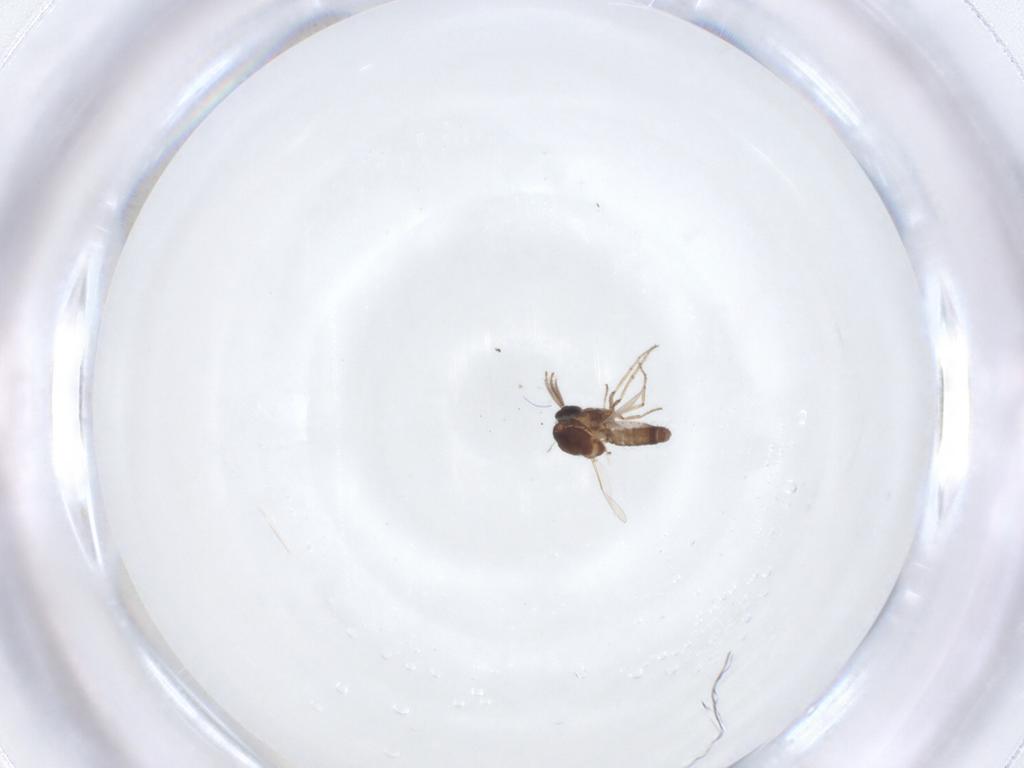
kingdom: Animalia
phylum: Arthropoda
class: Insecta
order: Diptera
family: Ceratopogonidae
